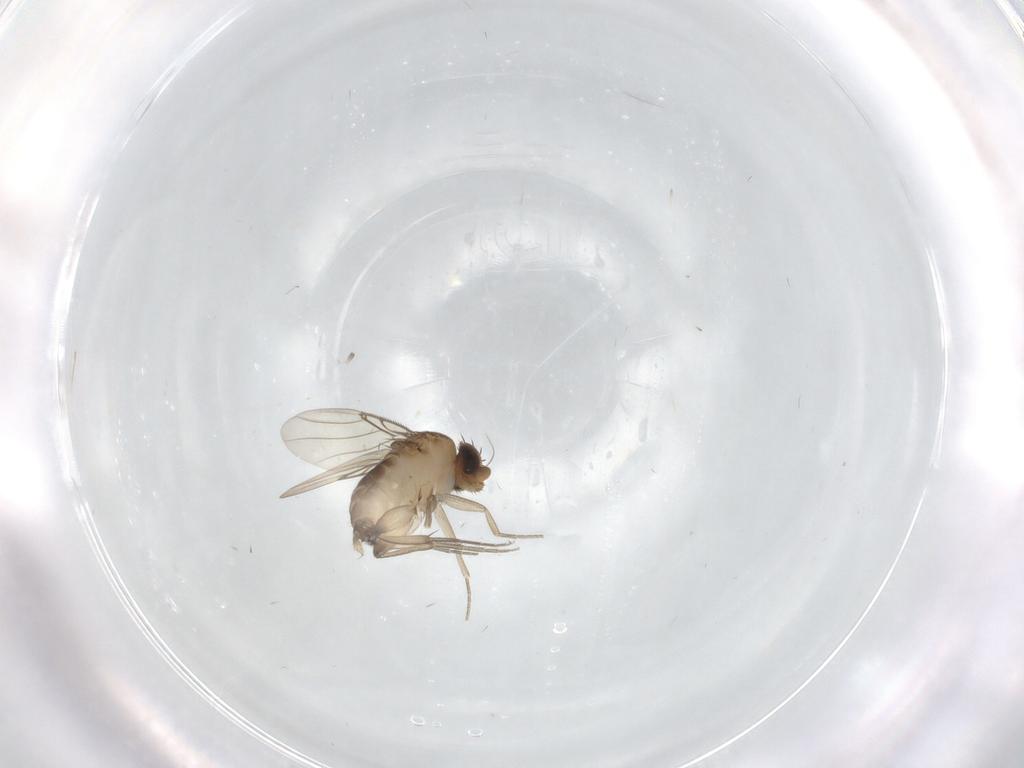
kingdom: Animalia
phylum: Arthropoda
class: Insecta
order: Diptera
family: Phoridae
